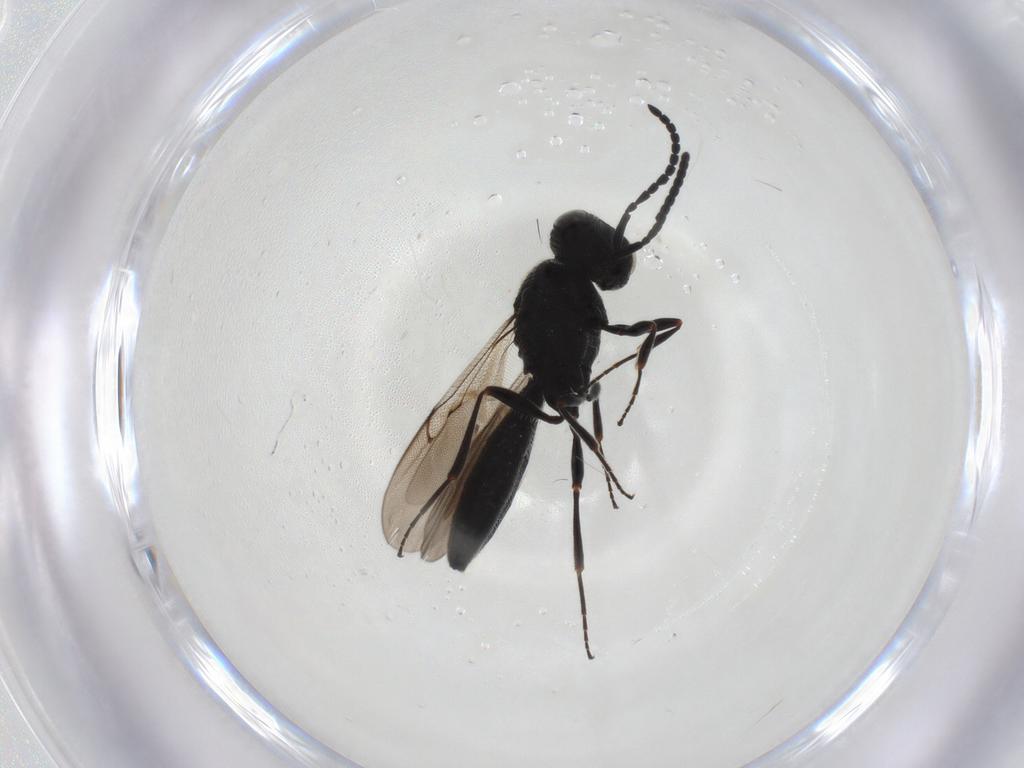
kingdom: Animalia
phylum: Arthropoda
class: Insecta
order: Hymenoptera
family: Scelionidae
